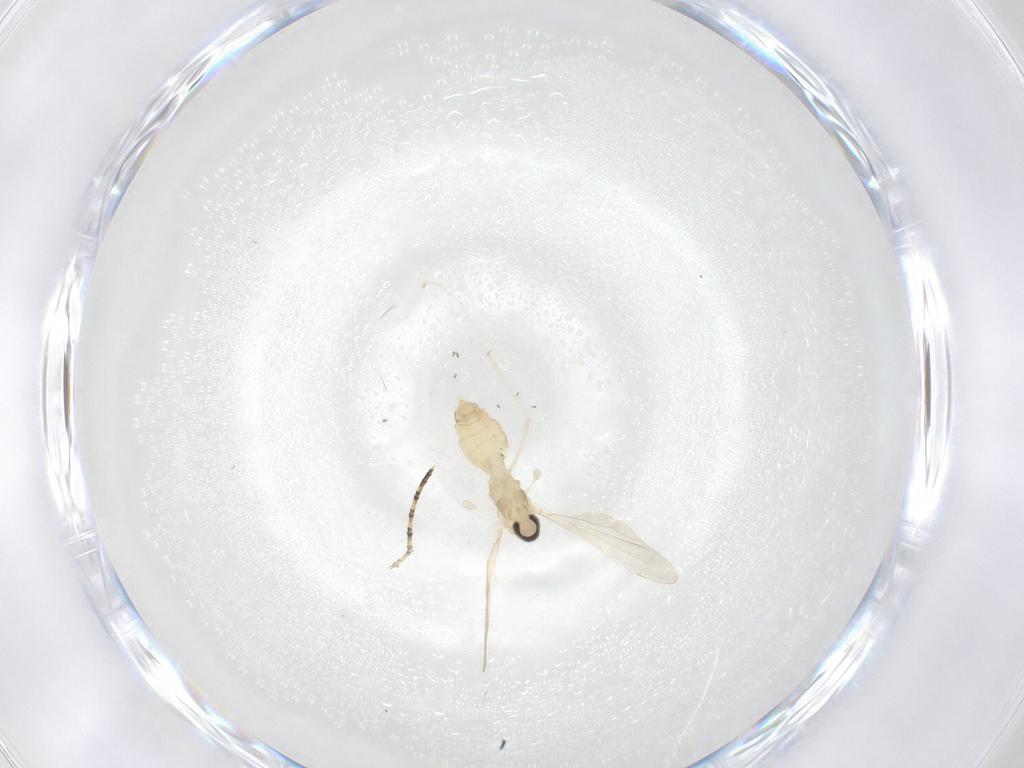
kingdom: Animalia
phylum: Arthropoda
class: Insecta
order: Diptera
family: Cecidomyiidae
